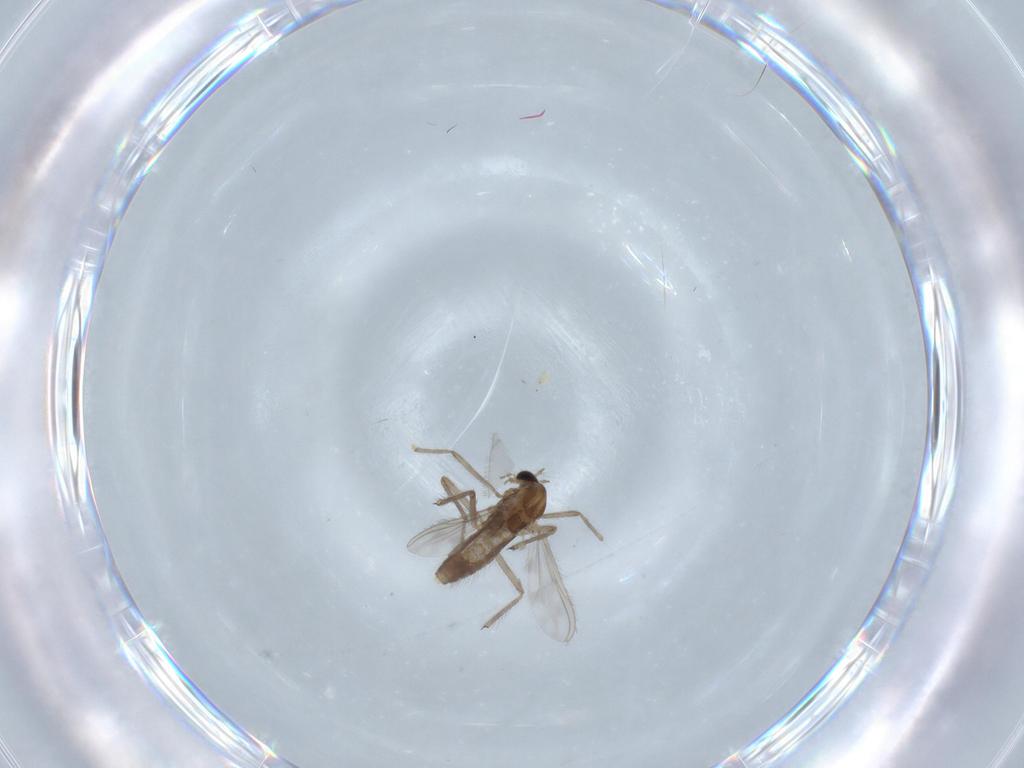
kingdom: Animalia
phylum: Arthropoda
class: Insecta
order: Diptera
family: Chironomidae
